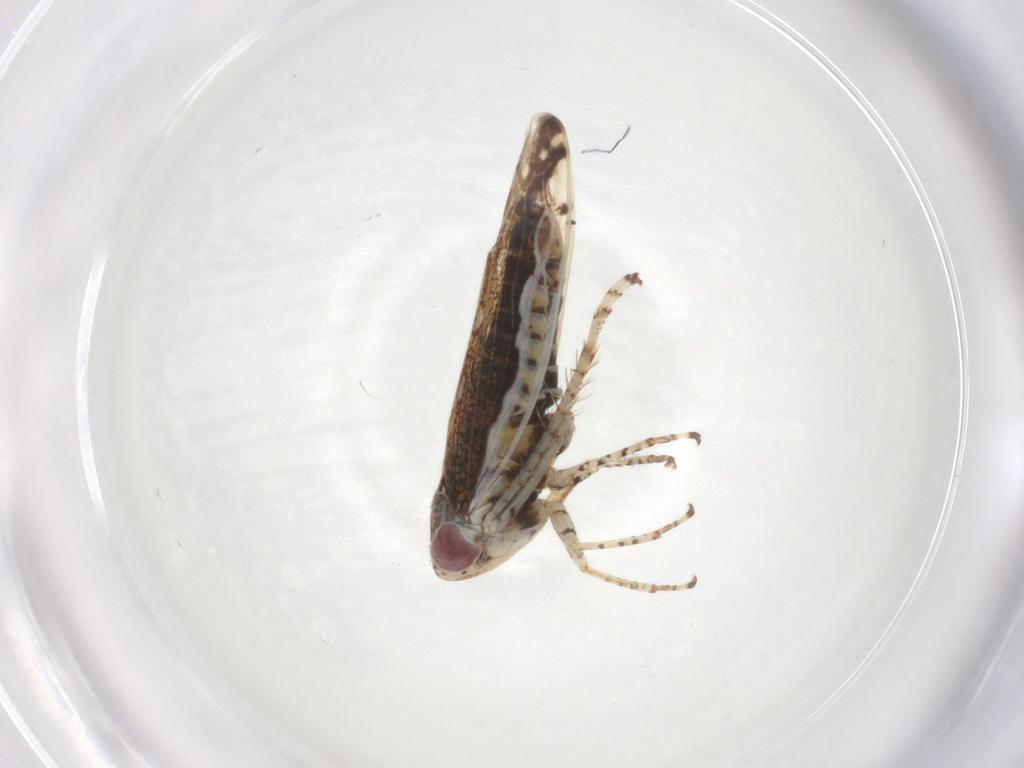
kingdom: Animalia
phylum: Arthropoda
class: Insecta
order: Hemiptera
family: Cicadellidae
